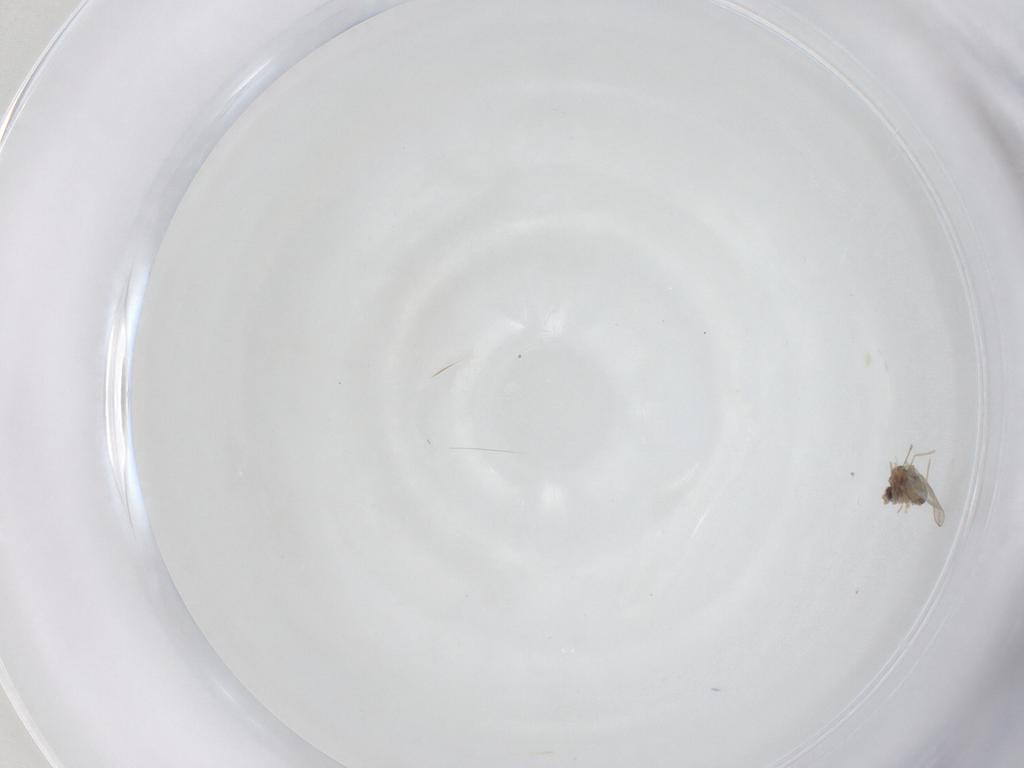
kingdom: Animalia
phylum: Arthropoda
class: Insecta
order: Diptera
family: Cecidomyiidae
